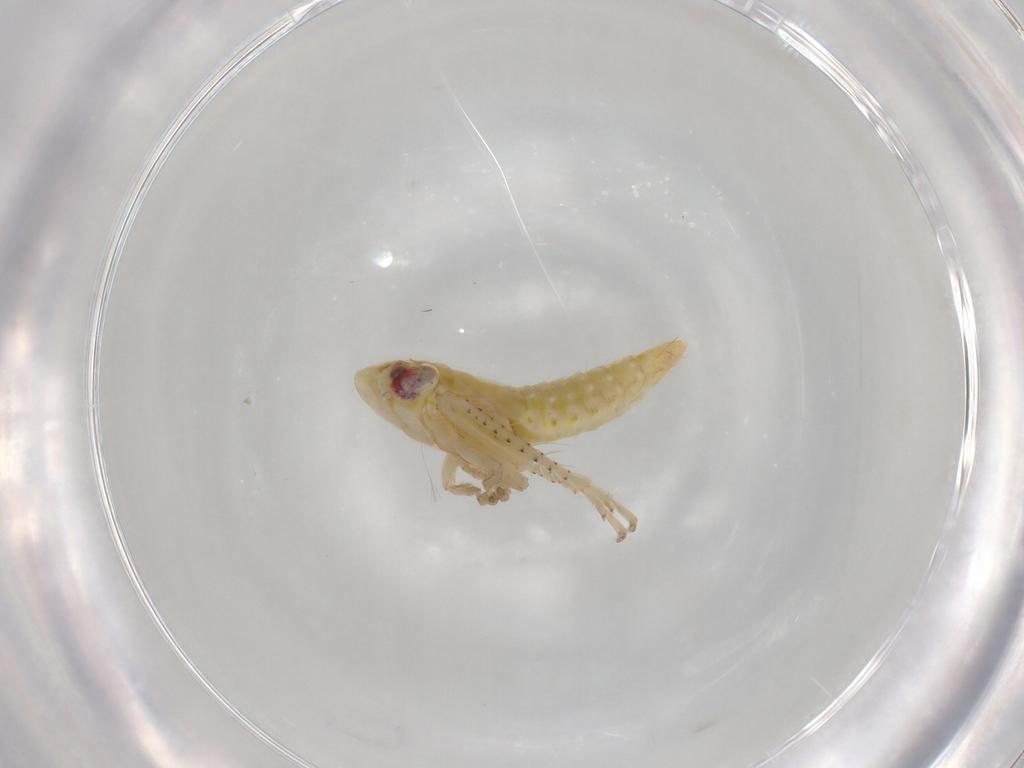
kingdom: Animalia
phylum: Arthropoda
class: Insecta
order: Hemiptera
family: Cicadellidae
